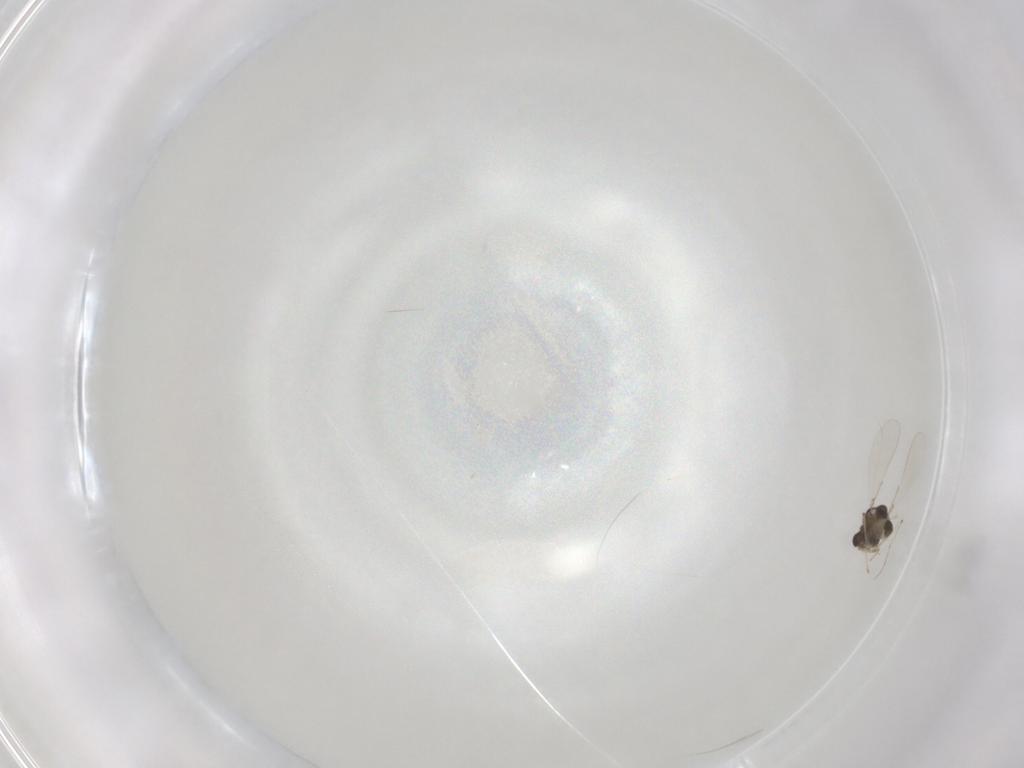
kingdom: Animalia
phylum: Arthropoda
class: Insecta
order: Diptera
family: Chironomidae
